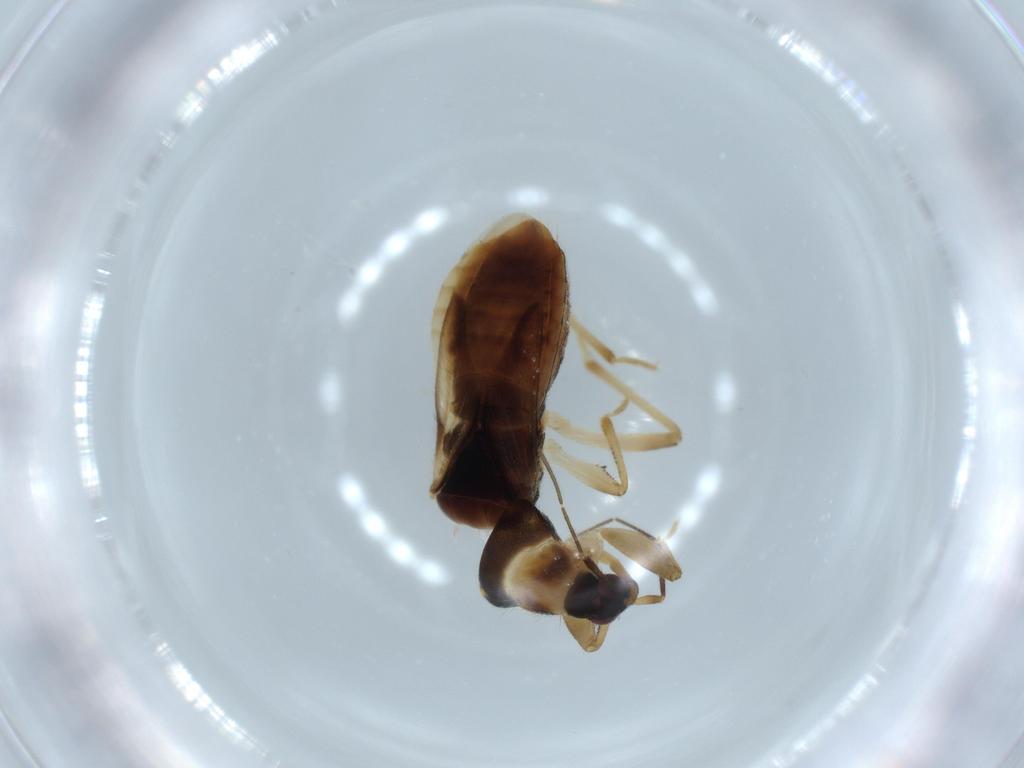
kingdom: Animalia
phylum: Arthropoda
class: Insecta
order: Hemiptera
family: Nabidae
